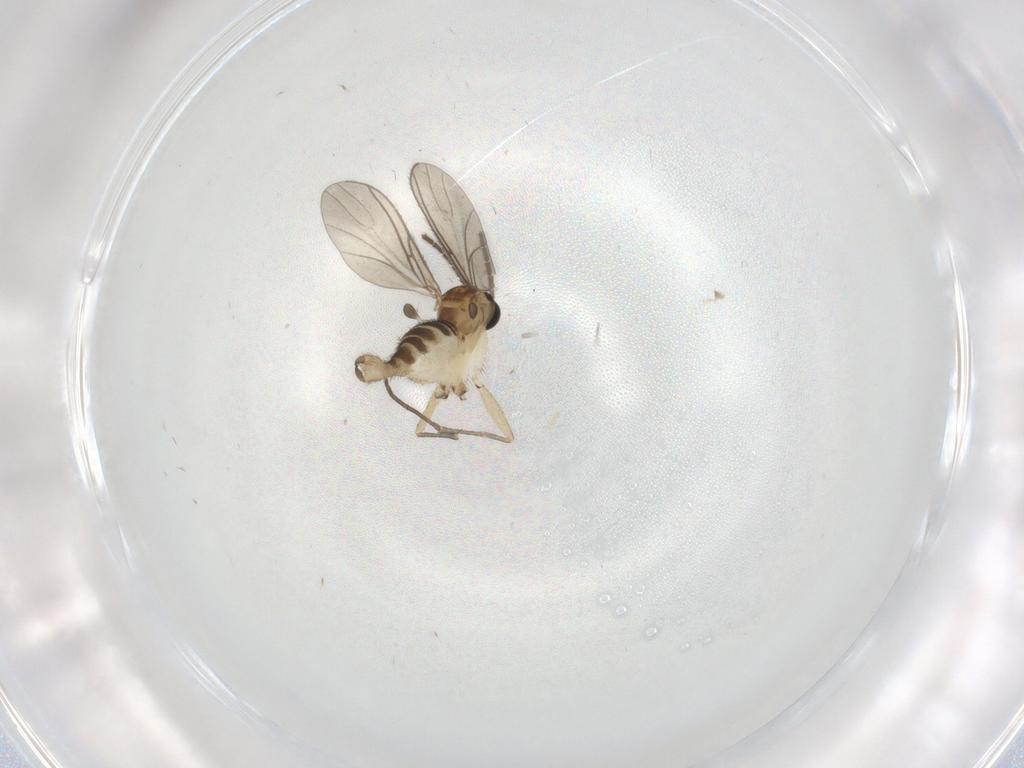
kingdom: Animalia
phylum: Arthropoda
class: Insecta
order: Diptera
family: Sciaridae
